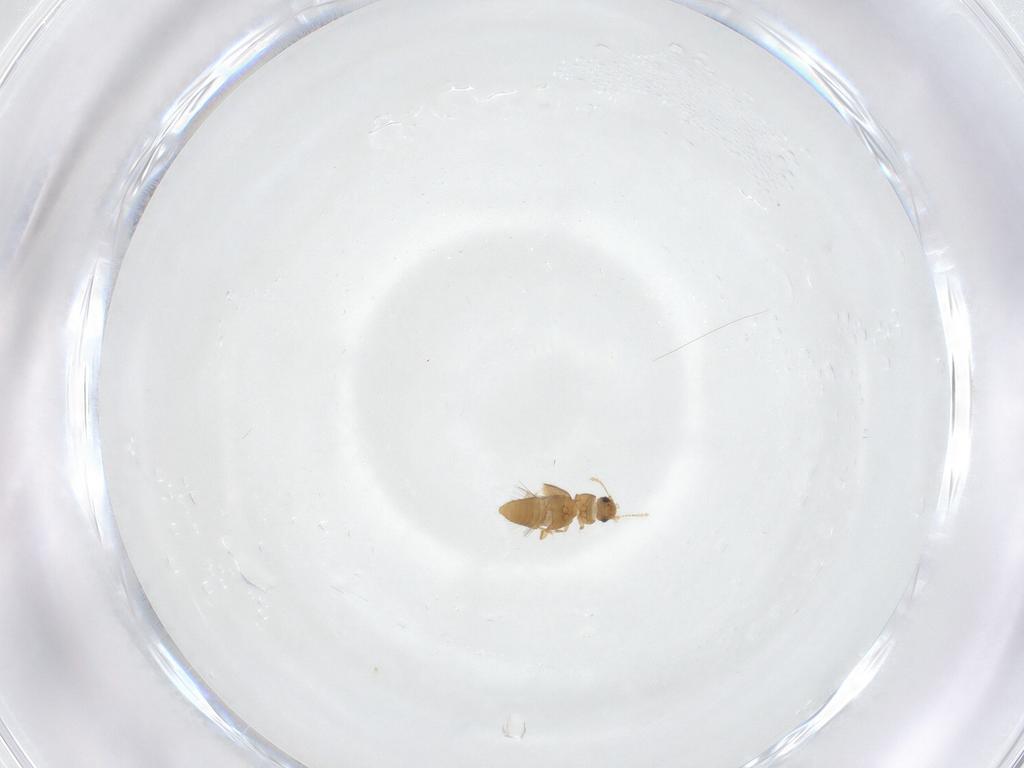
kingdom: Animalia
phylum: Arthropoda
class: Insecta
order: Coleoptera
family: Ptiliidae
